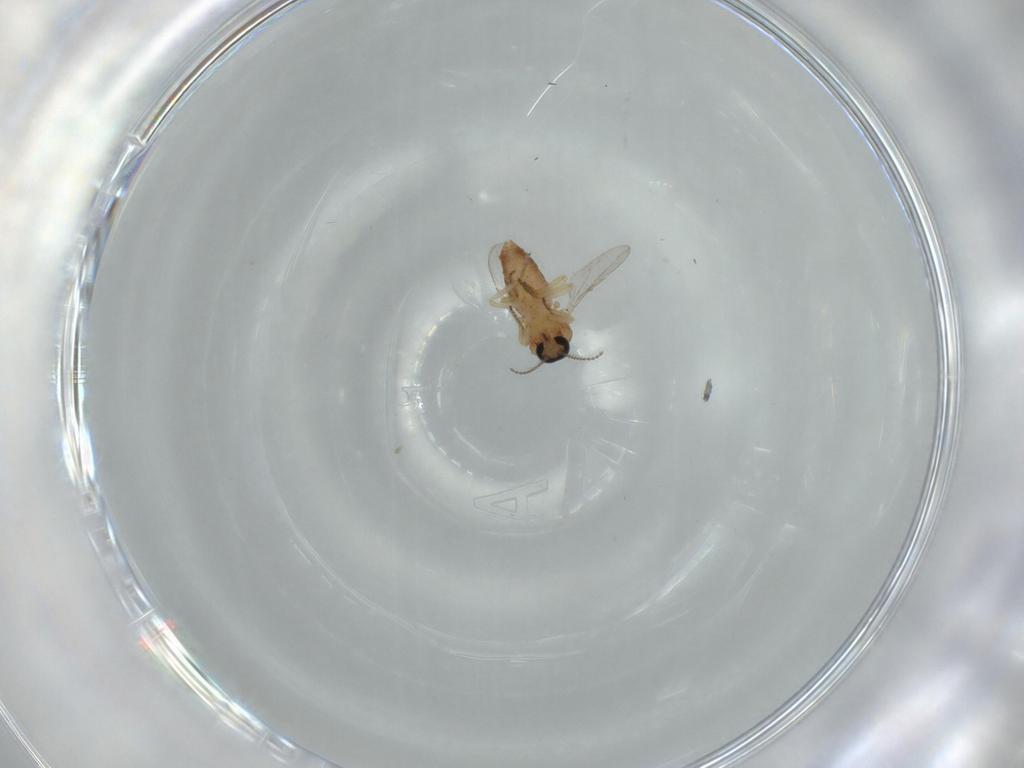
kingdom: Animalia
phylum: Arthropoda
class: Insecta
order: Diptera
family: Ceratopogonidae
